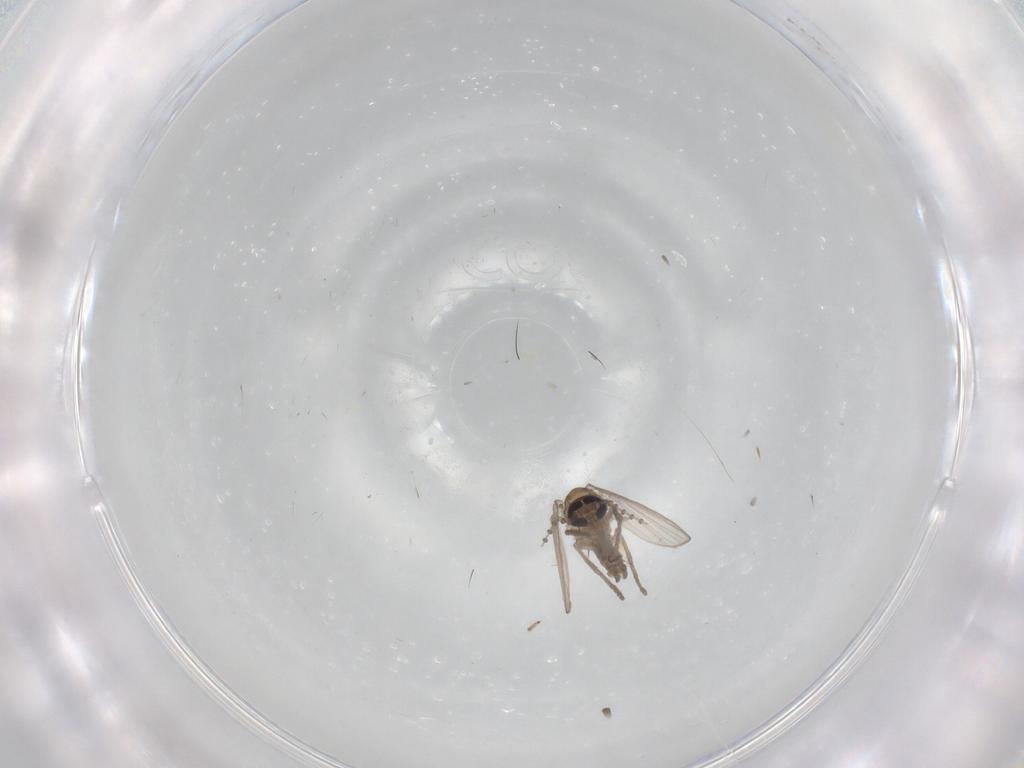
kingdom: Animalia
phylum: Arthropoda
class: Insecta
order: Diptera
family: Psychodidae
